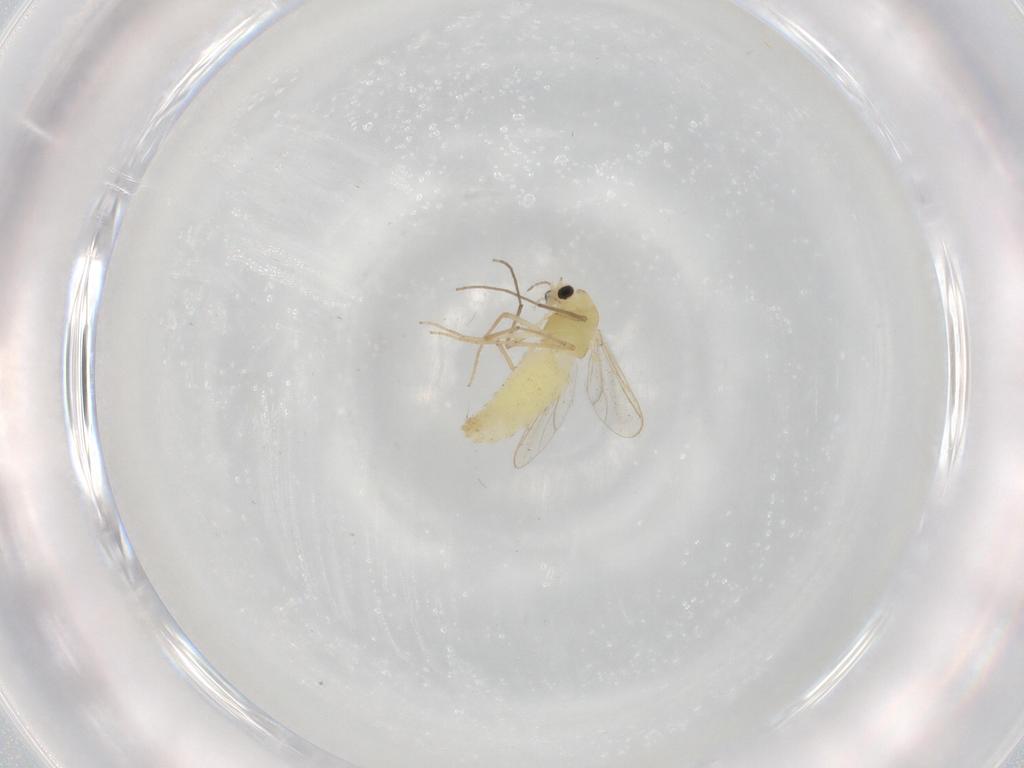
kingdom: Animalia
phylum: Arthropoda
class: Insecta
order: Diptera
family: Chironomidae
